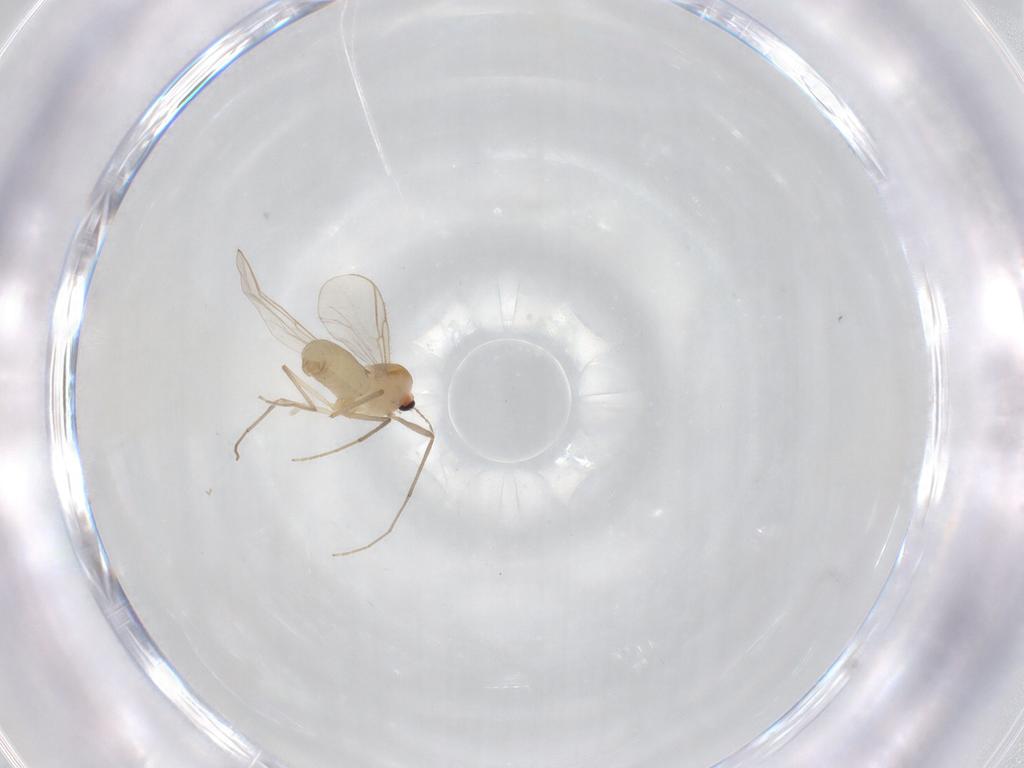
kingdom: Animalia
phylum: Arthropoda
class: Insecta
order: Diptera
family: Chironomidae
